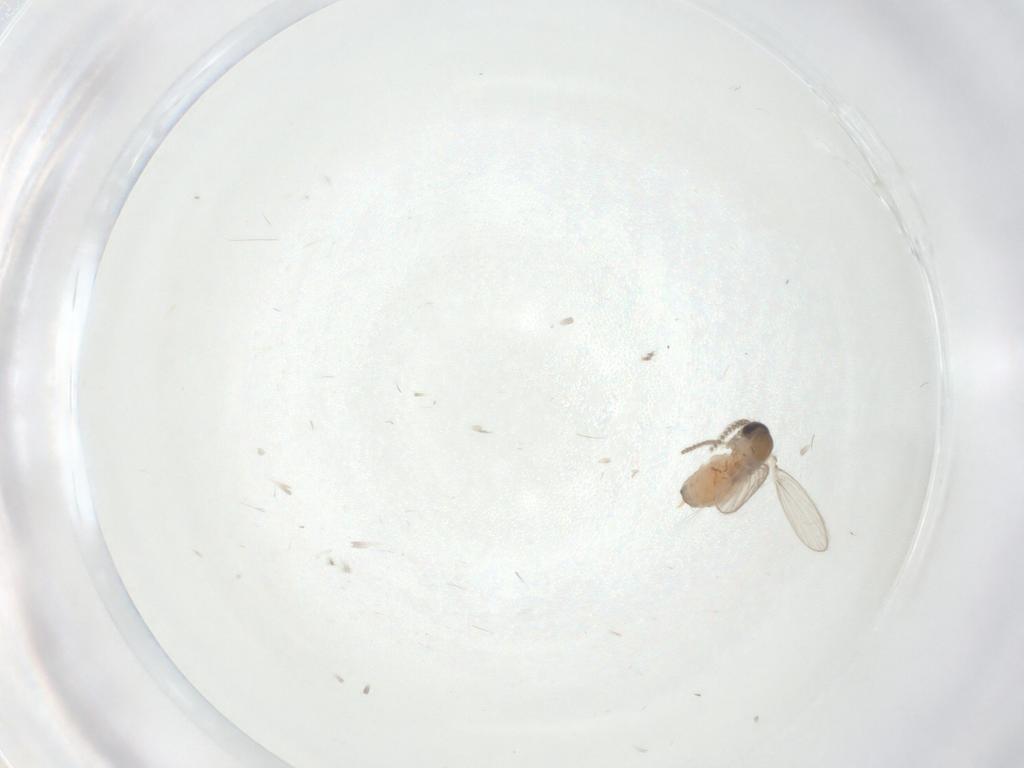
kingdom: Animalia
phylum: Arthropoda
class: Insecta
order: Diptera
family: Psychodidae
